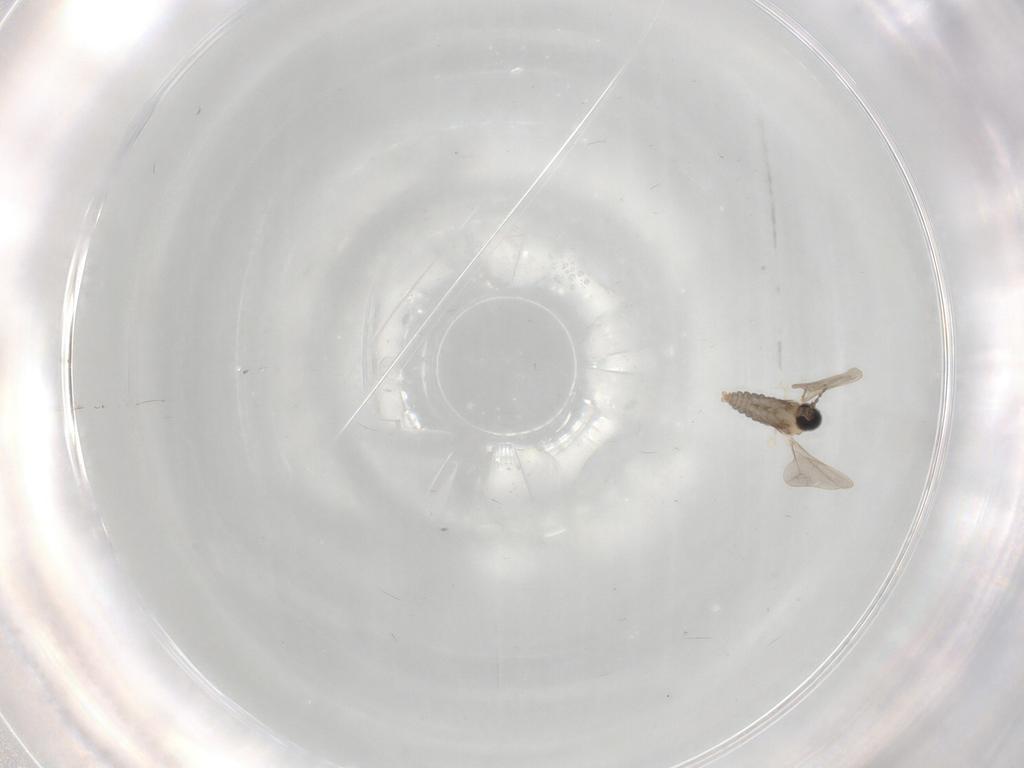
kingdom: Animalia
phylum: Arthropoda
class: Insecta
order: Diptera
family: Cecidomyiidae
